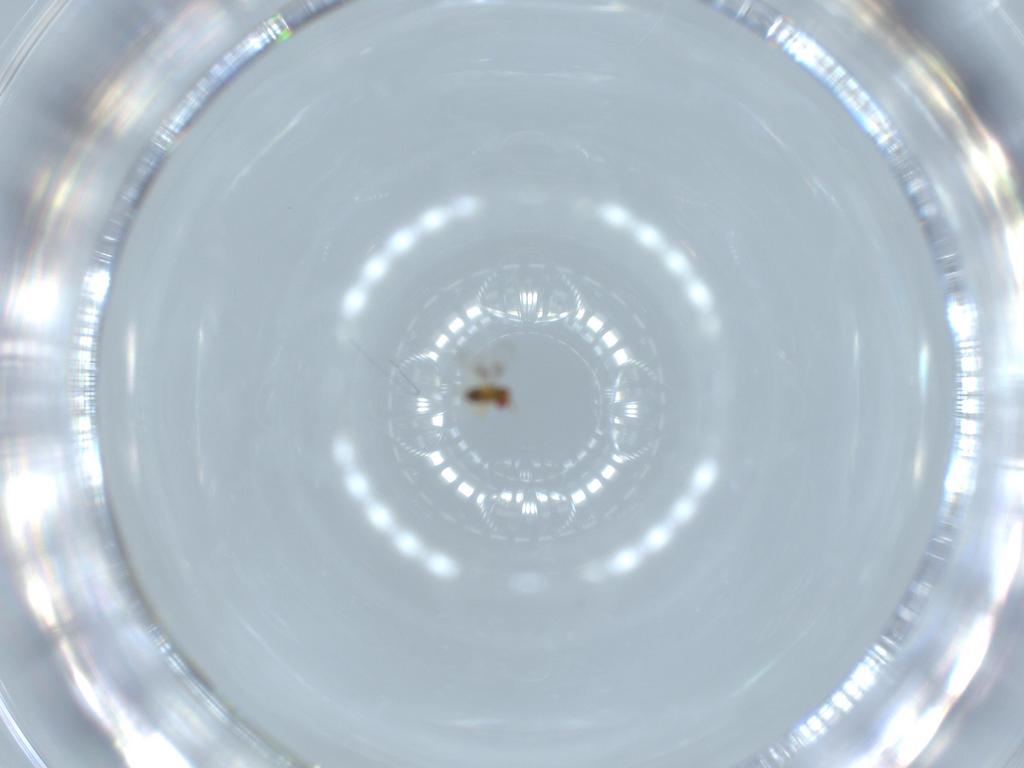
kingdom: Animalia
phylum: Arthropoda
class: Insecta
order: Hymenoptera
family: Trichogrammatidae
